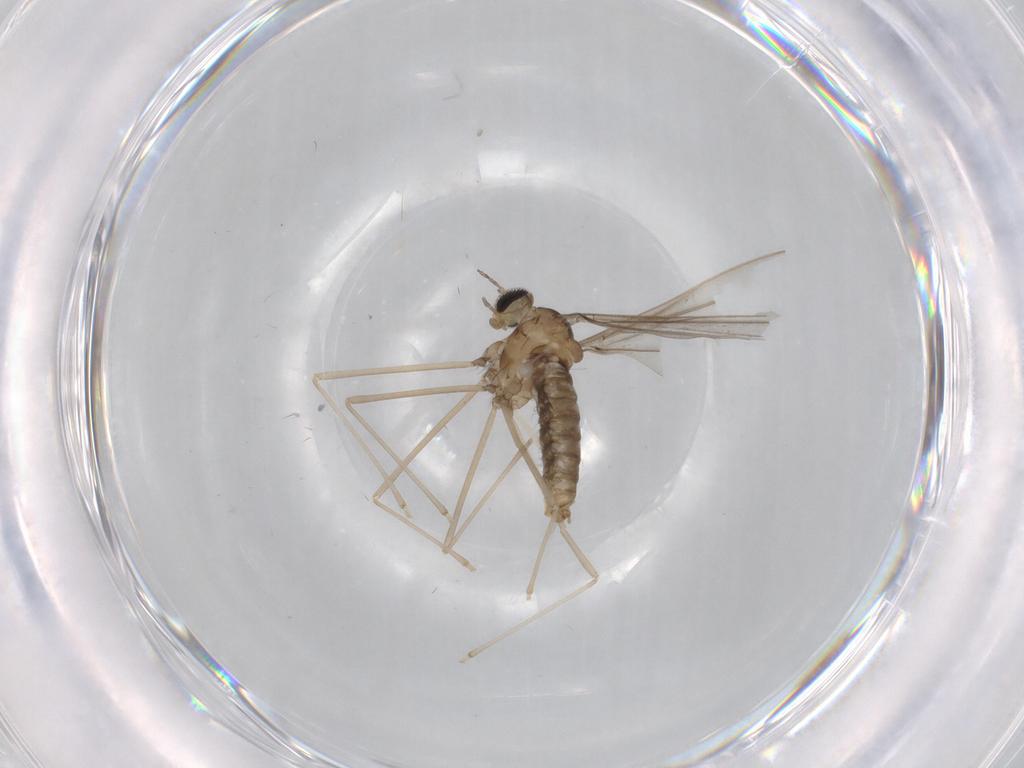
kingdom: Animalia
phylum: Arthropoda
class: Insecta
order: Diptera
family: Cecidomyiidae
